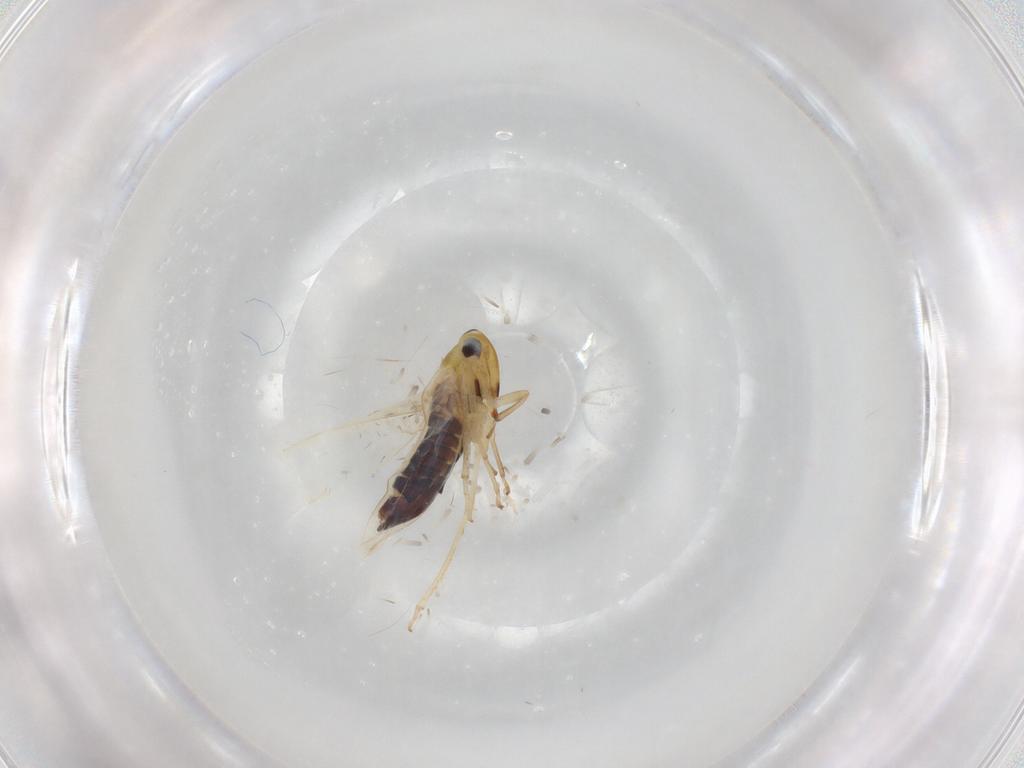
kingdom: Animalia
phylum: Arthropoda
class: Insecta
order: Hemiptera
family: Cicadellidae
